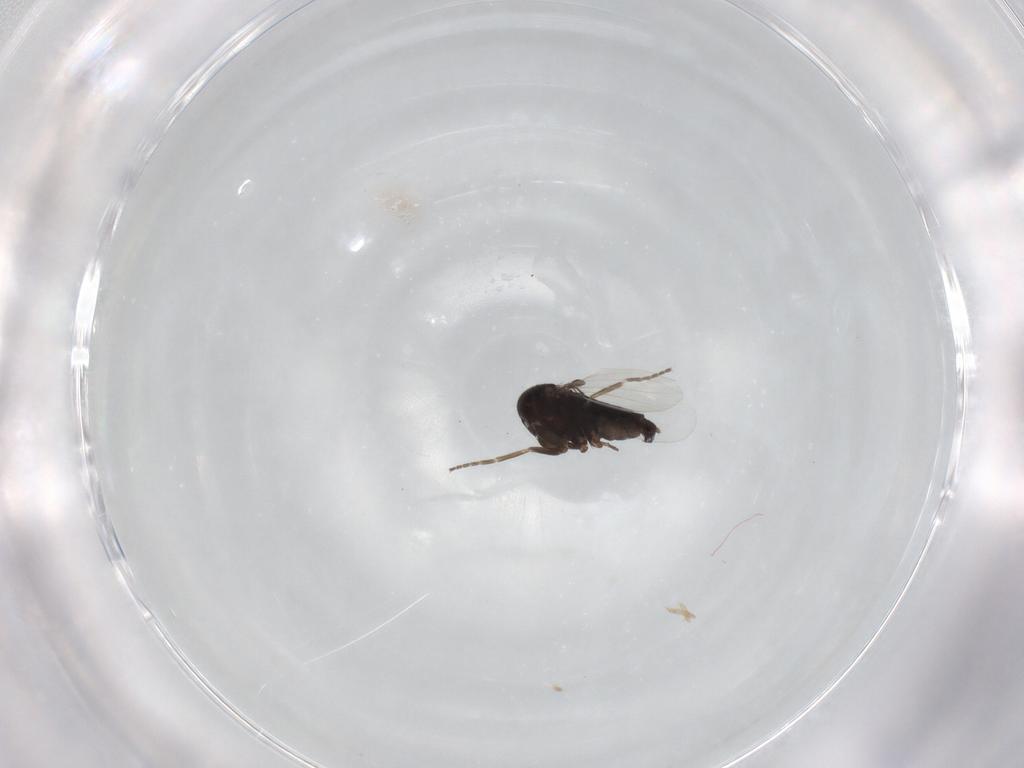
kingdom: Animalia
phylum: Arthropoda
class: Insecta
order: Diptera
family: Phoridae
